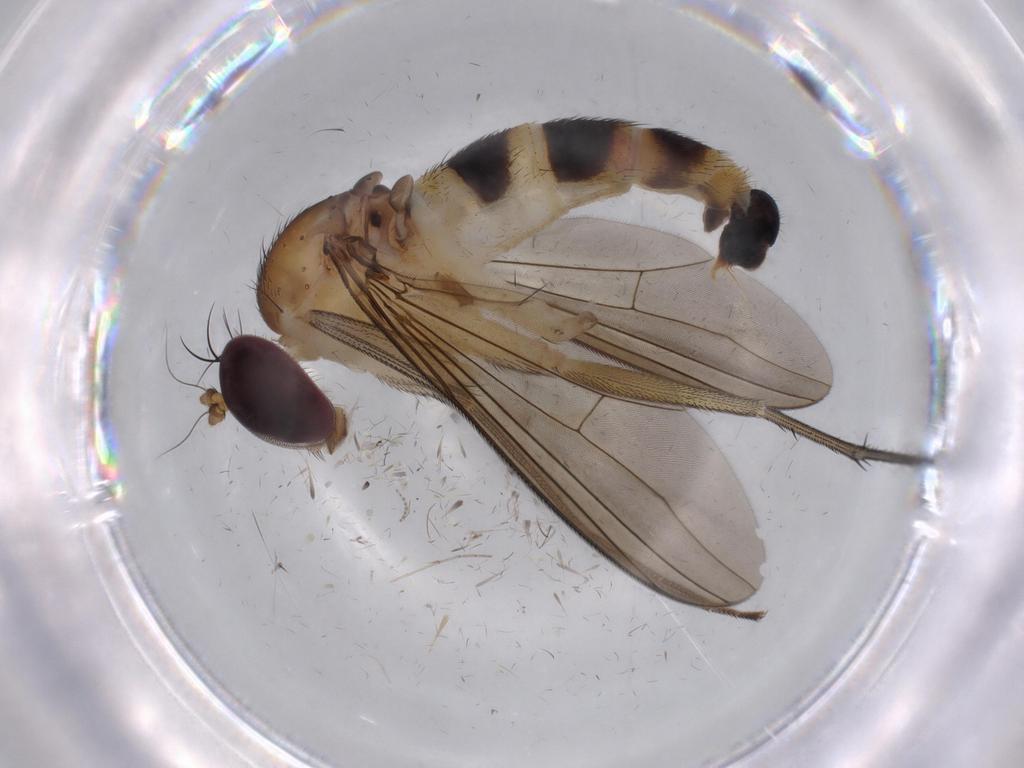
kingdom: Animalia
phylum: Arthropoda
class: Insecta
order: Diptera
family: Dolichopodidae
